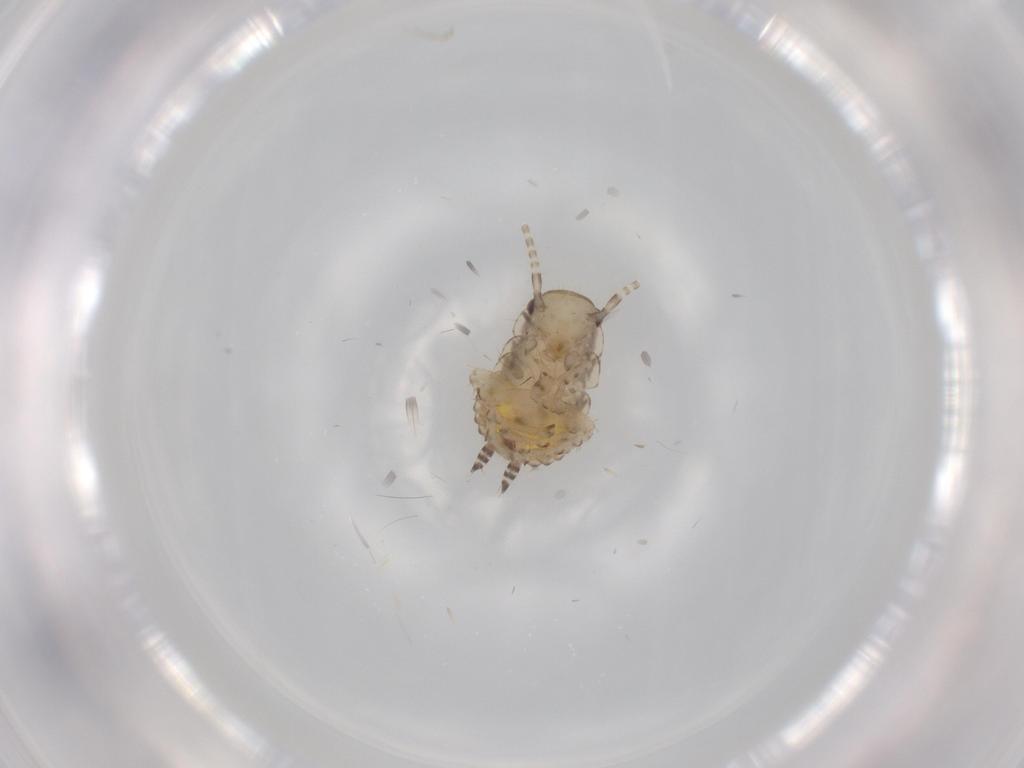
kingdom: Animalia
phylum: Arthropoda
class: Insecta
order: Blattodea
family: Ectobiidae
